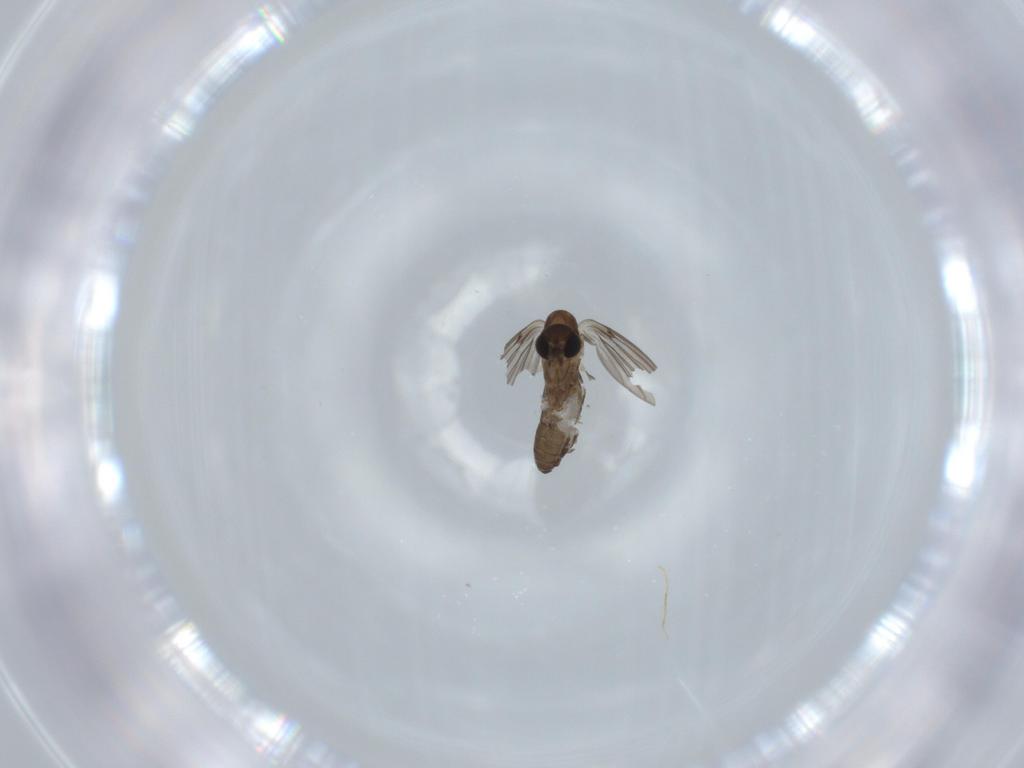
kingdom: Animalia
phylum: Arthropoda
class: Insecta
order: Diptera
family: Psychodidae
